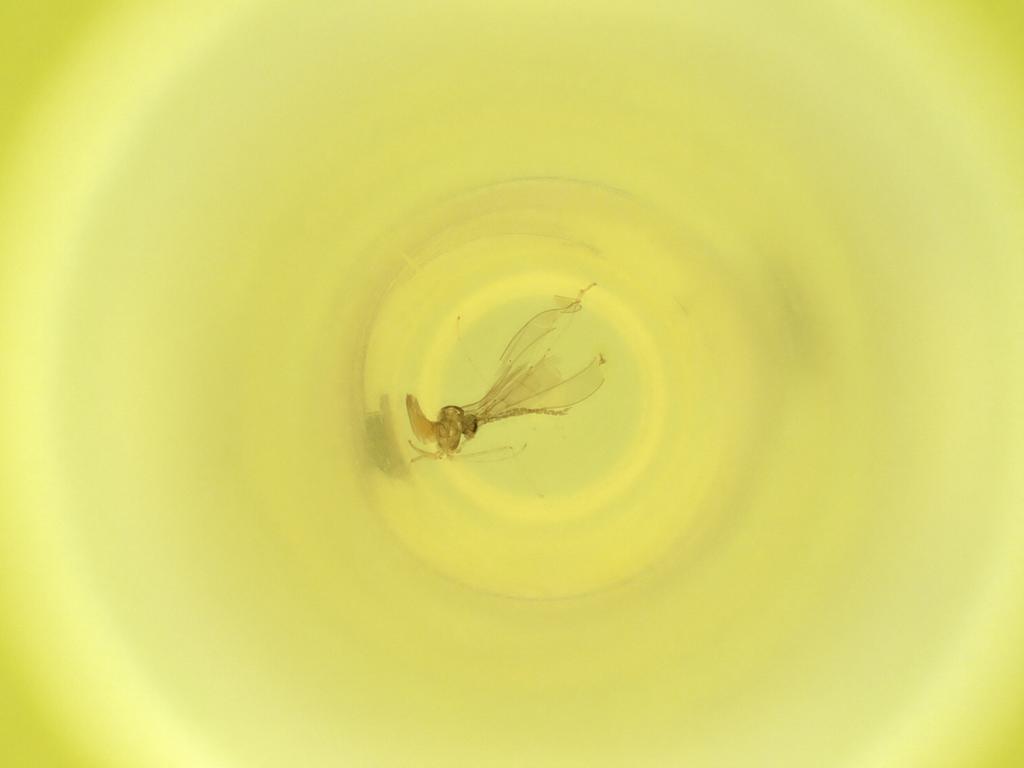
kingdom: Animalia
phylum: Arthropoda
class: Insecta
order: Diptera
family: Cecidomyiidae
